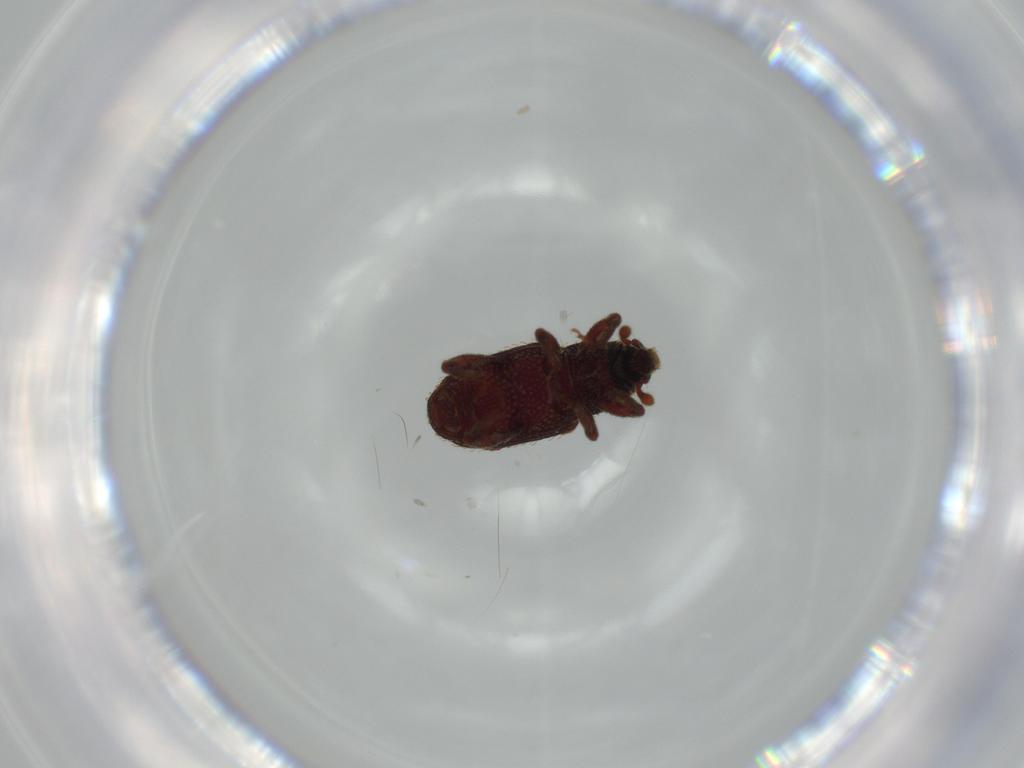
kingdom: Animalia
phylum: Arthropoda
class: Insecta
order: Coleoptera
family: Curculionidae
